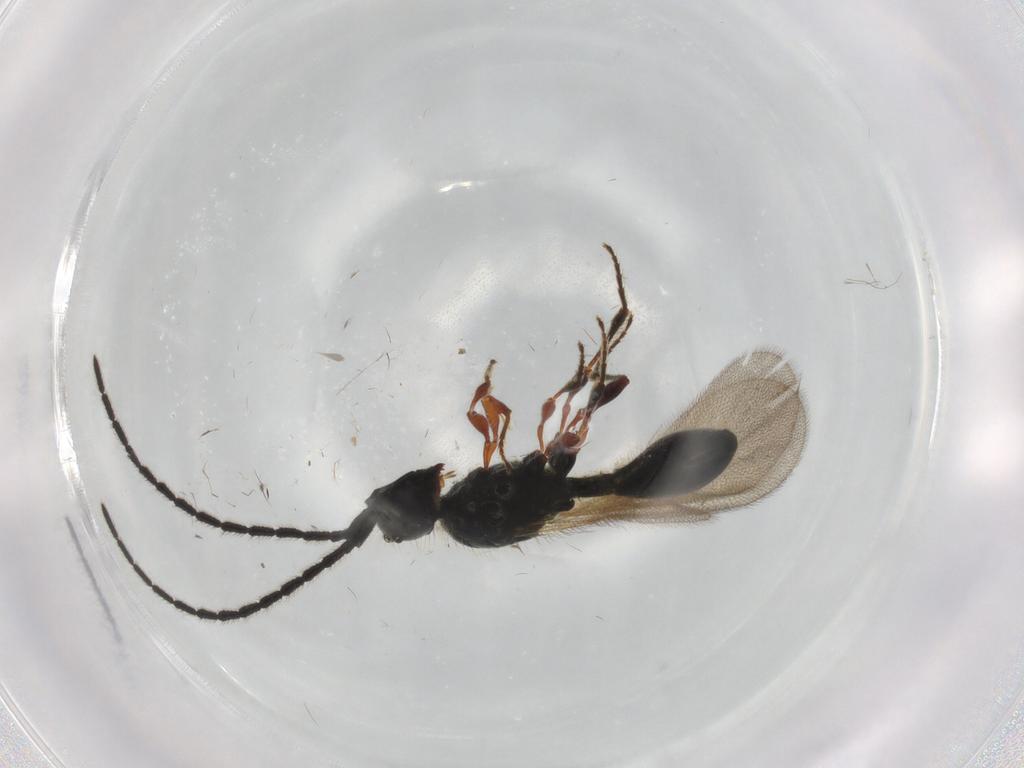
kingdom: Animalia
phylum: Arthropoda
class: Insecta
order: Hymenoptera
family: Diapriidae
